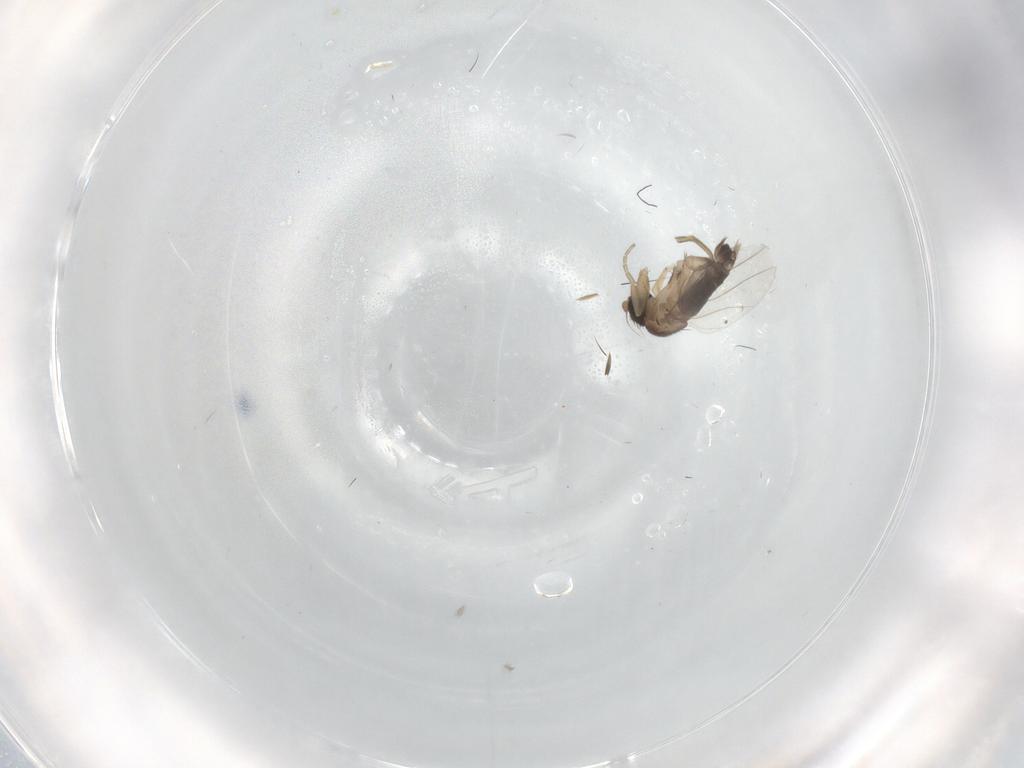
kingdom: Animalia
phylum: Arthropoda
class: Insecta
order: Diptera
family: Cecidomyiidae
